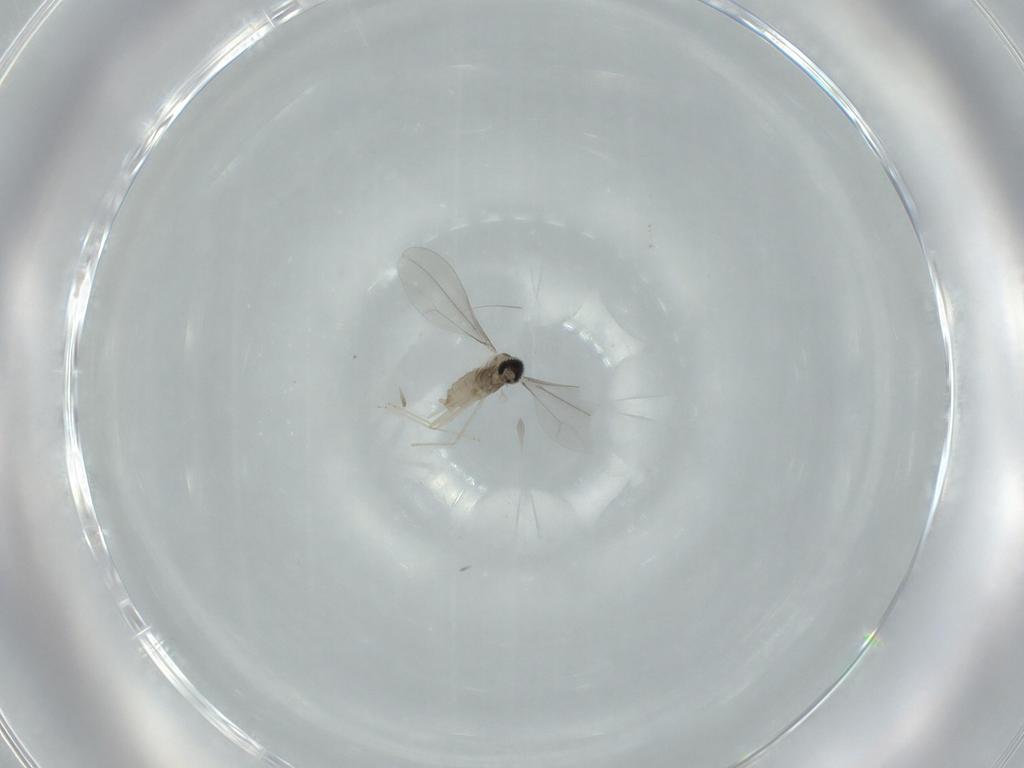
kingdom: Animalia
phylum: Arthropoda
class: Insecta
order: Diptera
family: Cecidomyiidae
